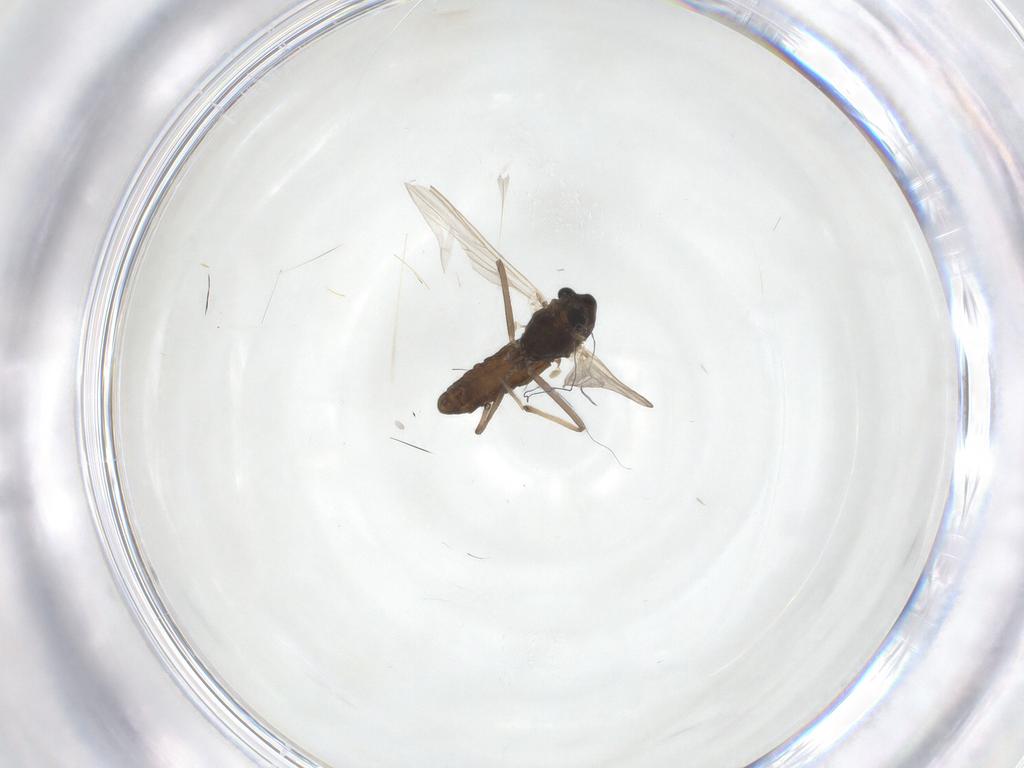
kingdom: Animalia
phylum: Arthropoda
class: Insecta
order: Diptera
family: Chironomidae
